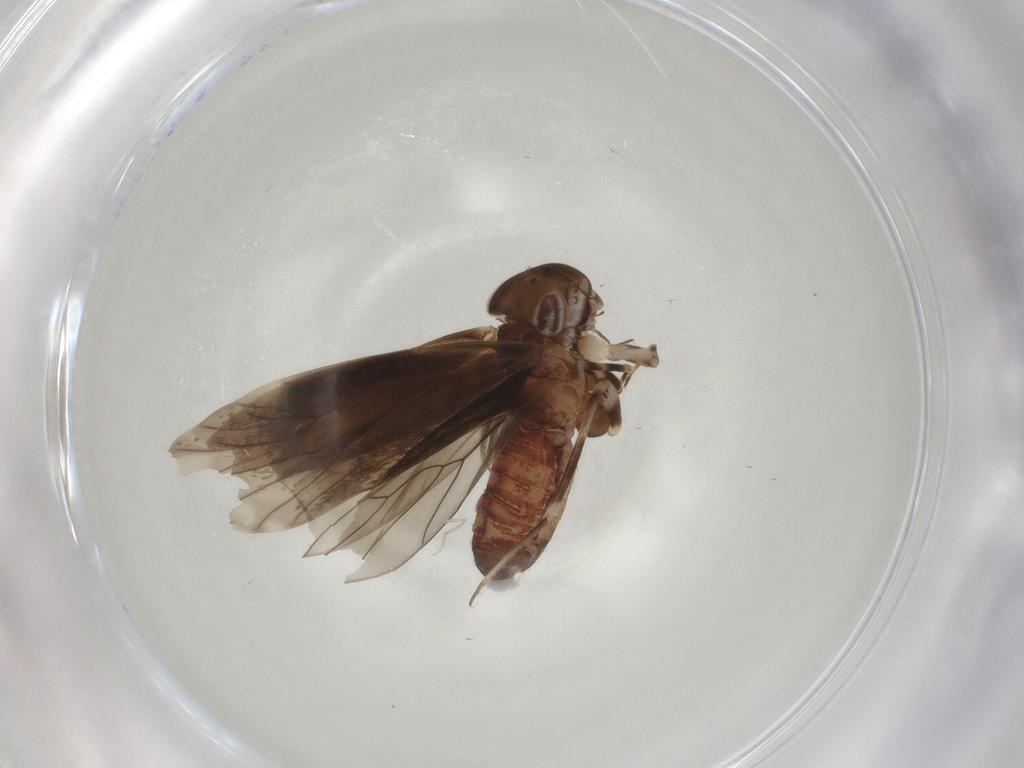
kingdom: Animalia
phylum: Arthropoda
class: Insecta
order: Psocodea
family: Amphientomidae
